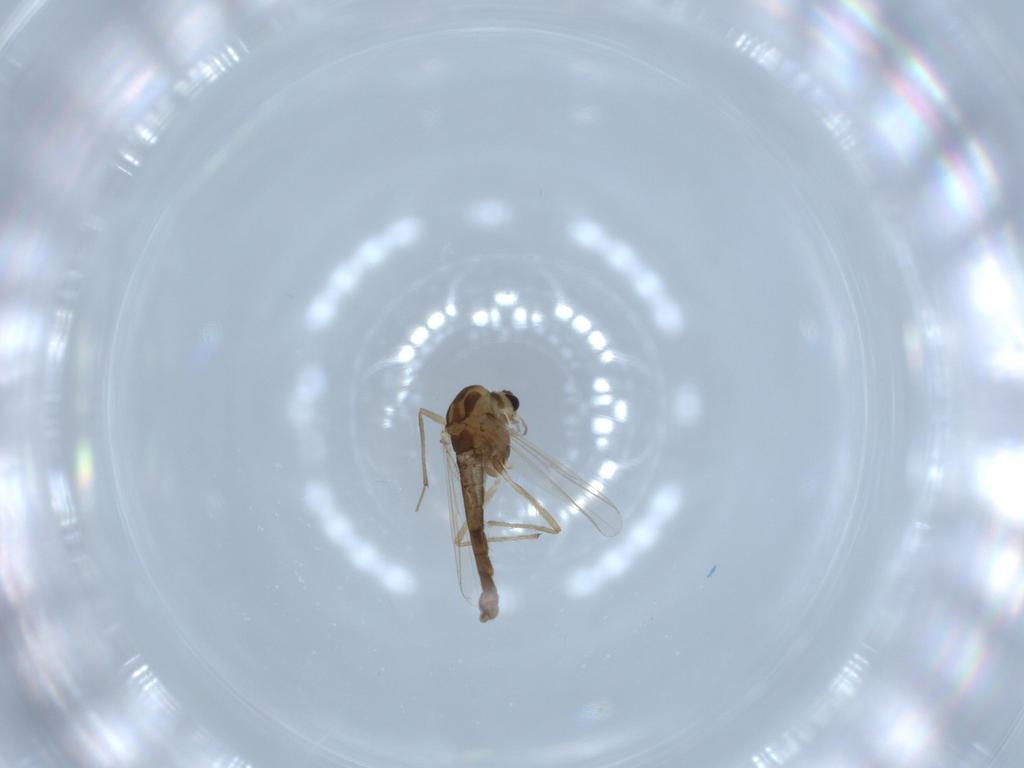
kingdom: Animalia
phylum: Arthropoda
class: Insecta
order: Diptera
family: Chironomidae
